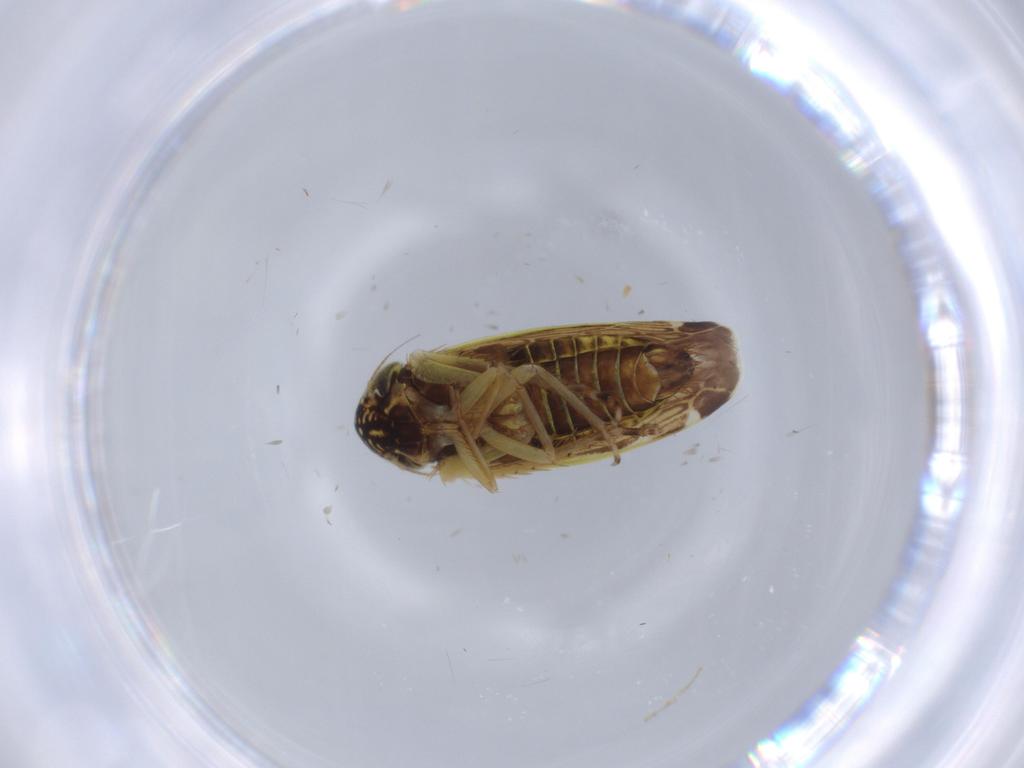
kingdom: Animalia
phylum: Arthropoda
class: Insecta
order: Hemiptera
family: Cicadellidae
